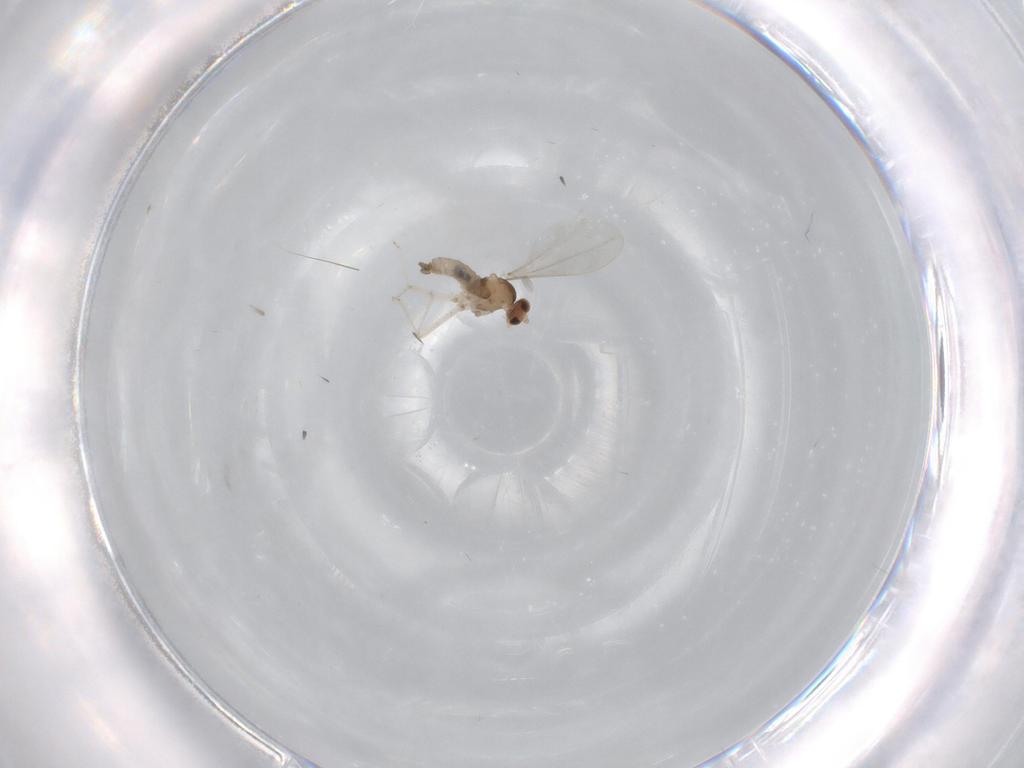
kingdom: Animalia
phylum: Arthropoda
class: Insecta
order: Diptera
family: Cecidomyiidae
